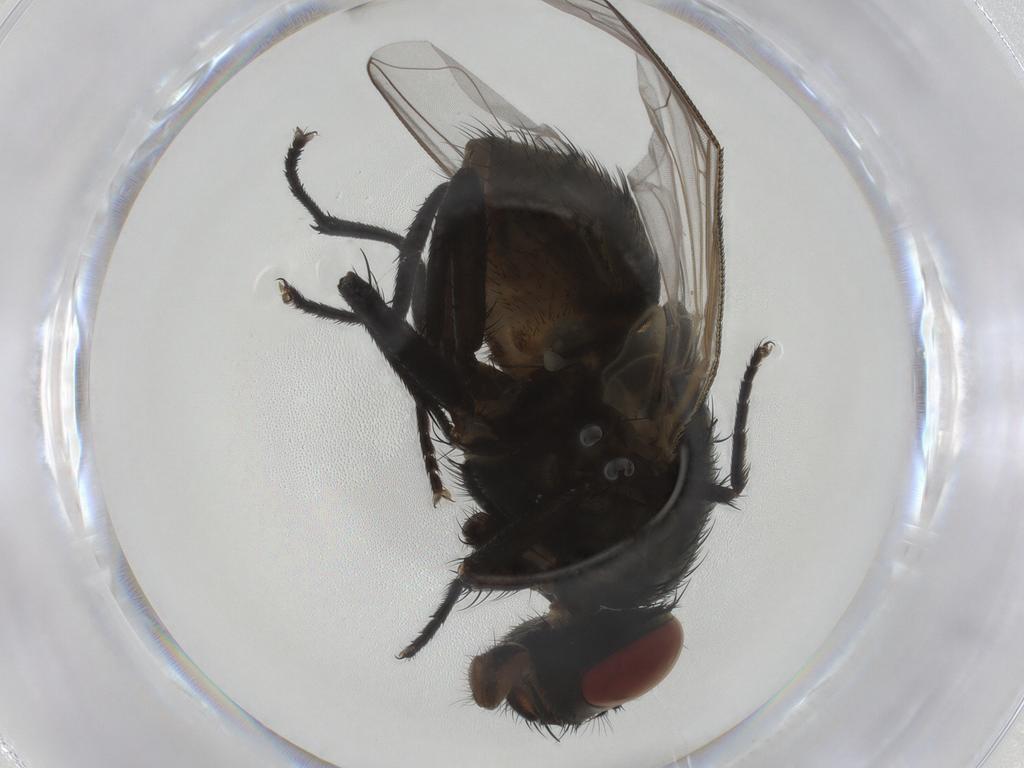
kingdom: Animalia
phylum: Arthropoda
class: Insecta
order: Diptera
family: Muscidae
